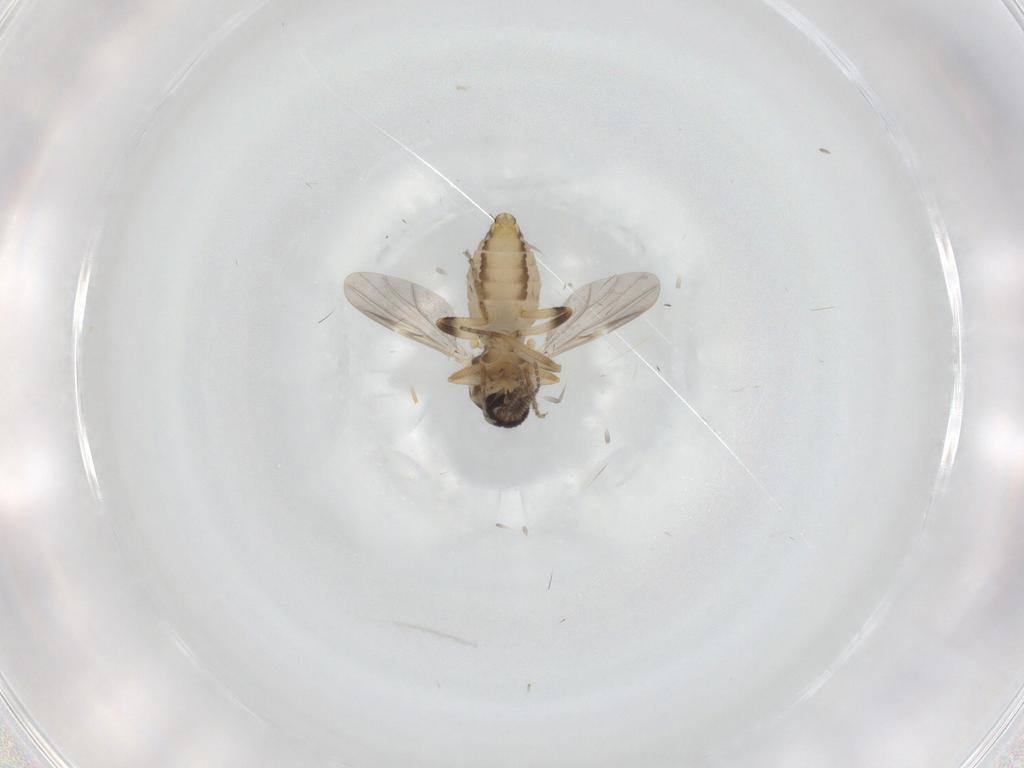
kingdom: Animalia
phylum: Arthropoda
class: Insecta
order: Diptera
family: Ceratopogonidae
